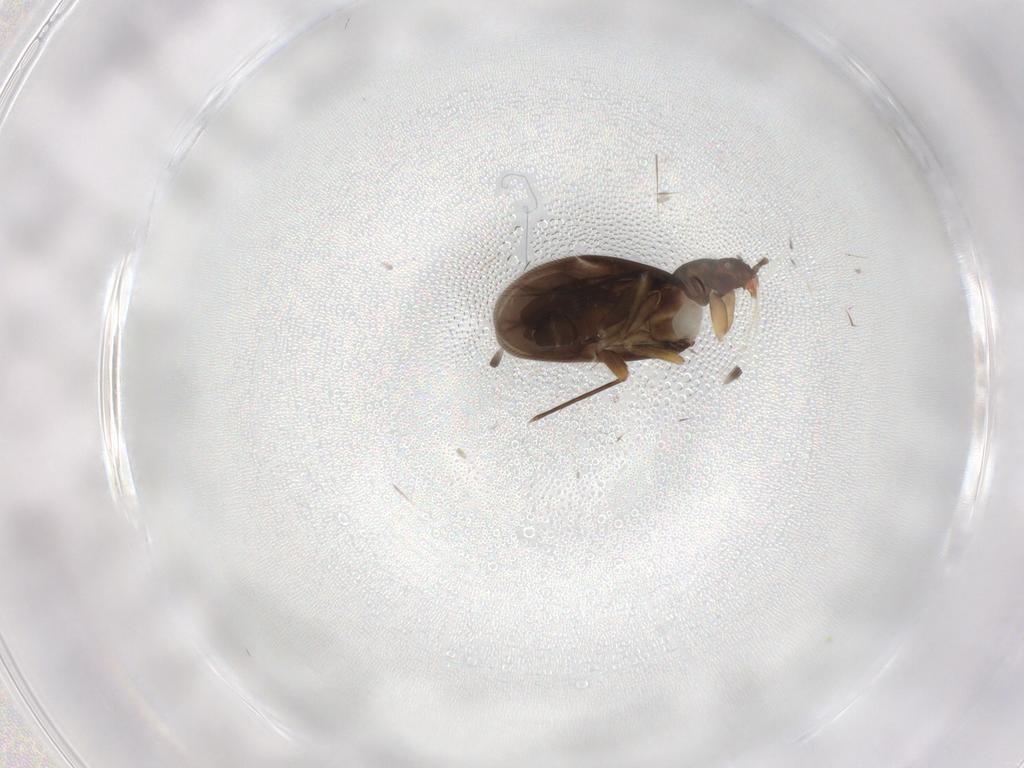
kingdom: Animalia
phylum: Arthropoda
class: Insecta
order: Hemiptera
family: Ceratocombidae
